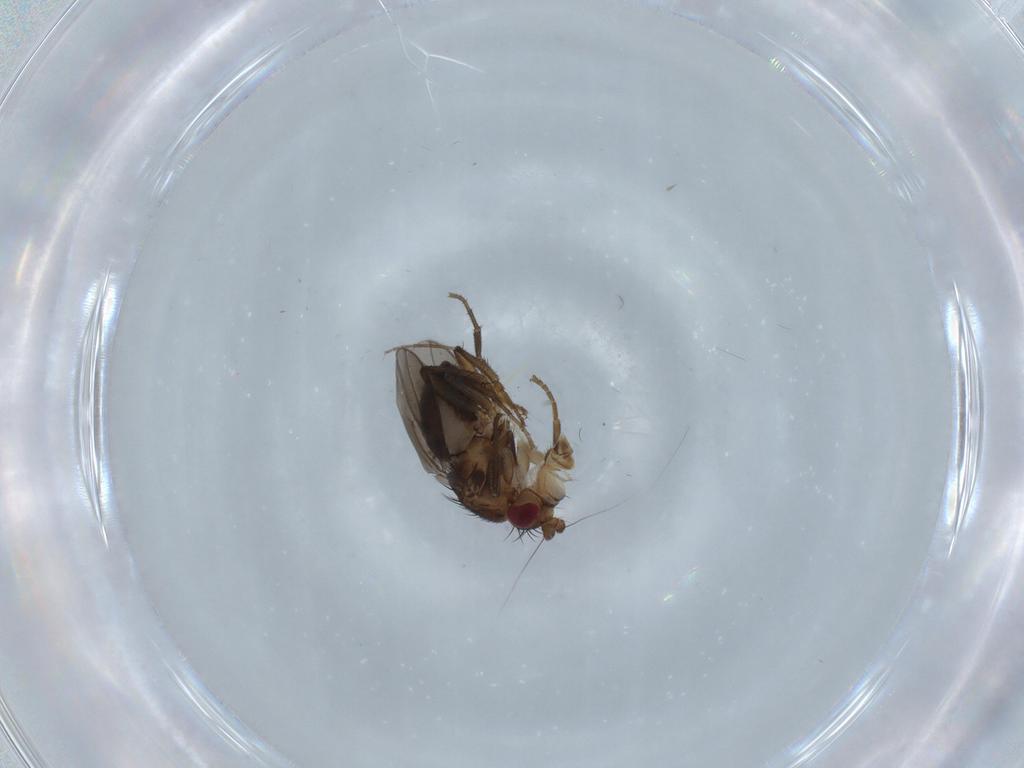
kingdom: Animalia
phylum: Arthropoda
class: Insecta
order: Diptera
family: Sphaeroceridae
